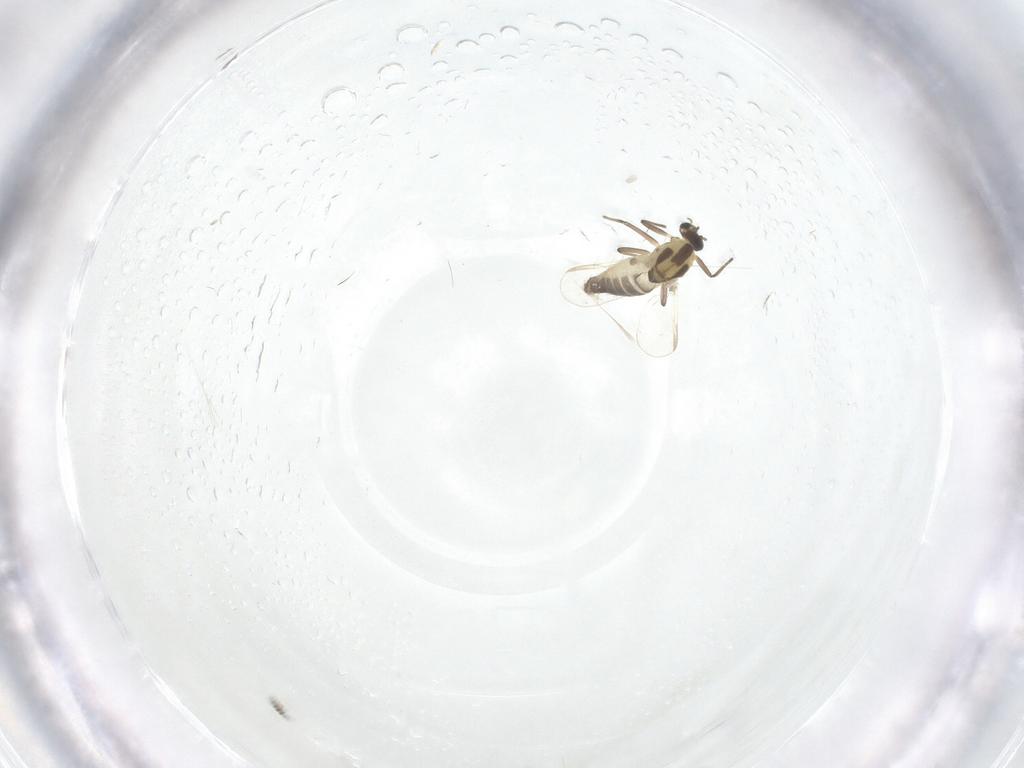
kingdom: Animalia
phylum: Arthropoda
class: Insecta
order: Diptera
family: Chironomidae
